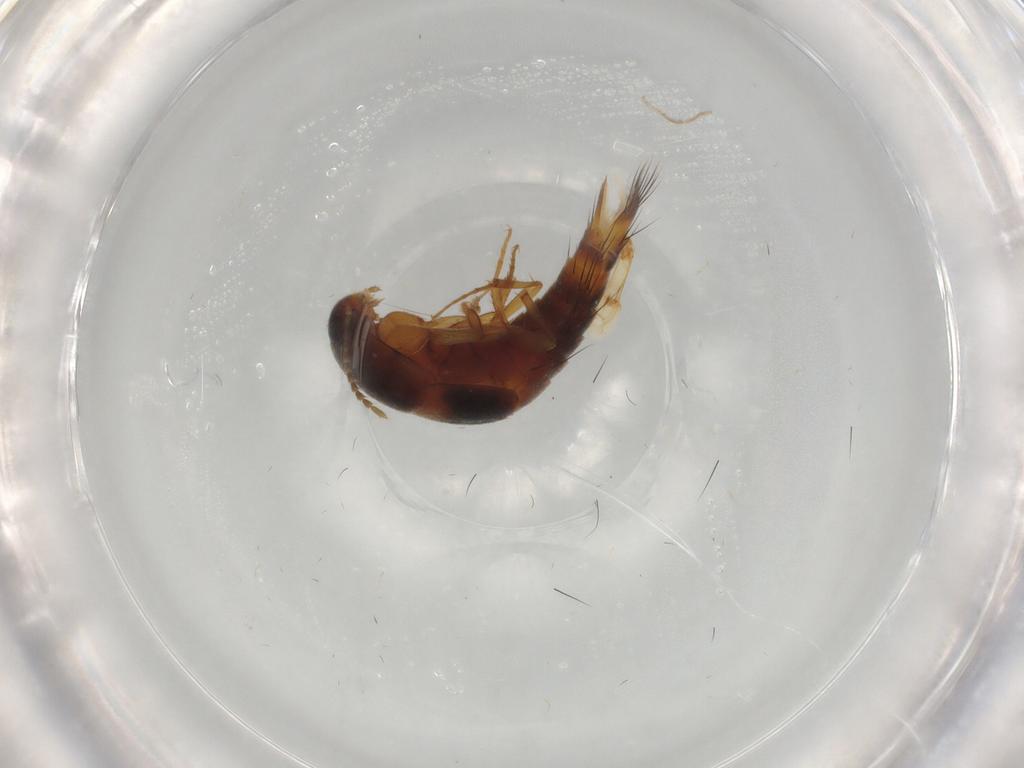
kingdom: Animalia
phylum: Arthropoda
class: Insecta
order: Coleoptera
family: Staphylinidae
